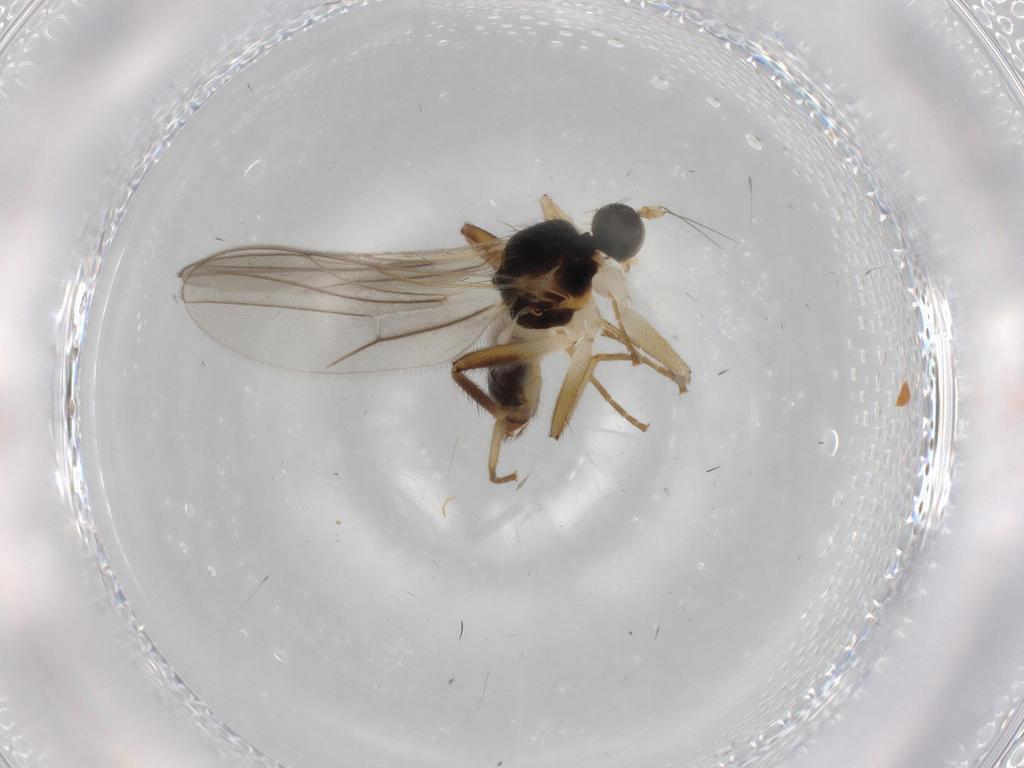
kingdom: Animalia
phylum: Arthropoda
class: Insecta
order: Diptera
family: Hybotidae
